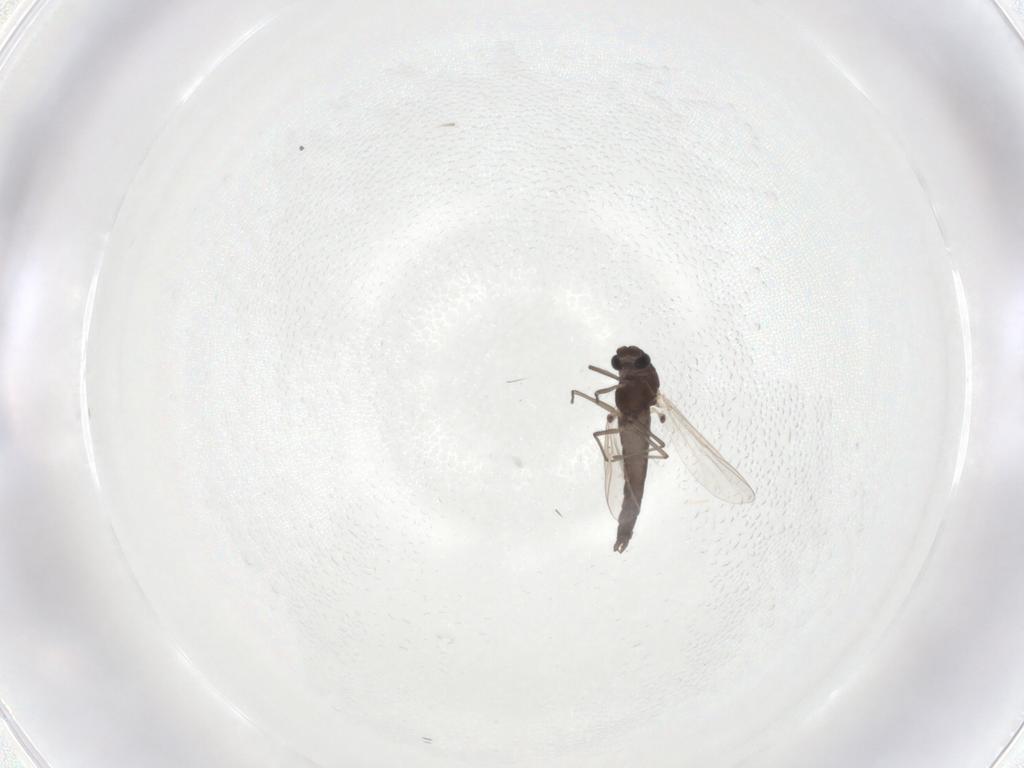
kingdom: Animalia
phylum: Arthropoda
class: Insecta
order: Diptera
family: Chironomidae
